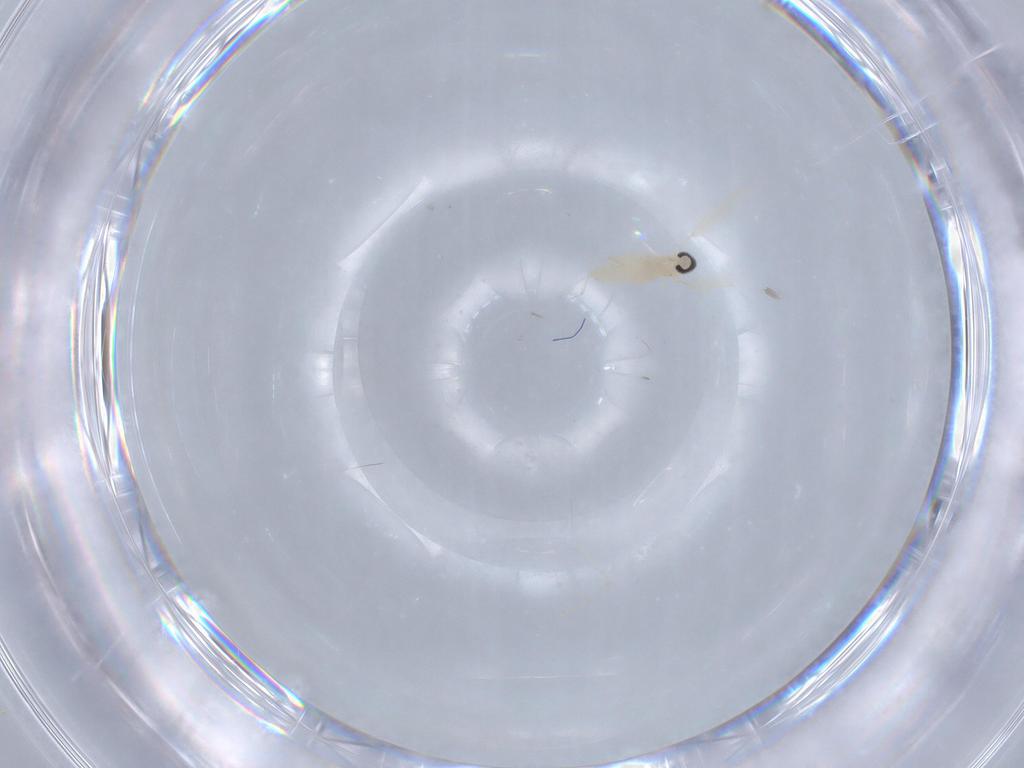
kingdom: Animalia
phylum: Arthropoda
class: Insecta
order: Diptera
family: Cecidomyiidae
